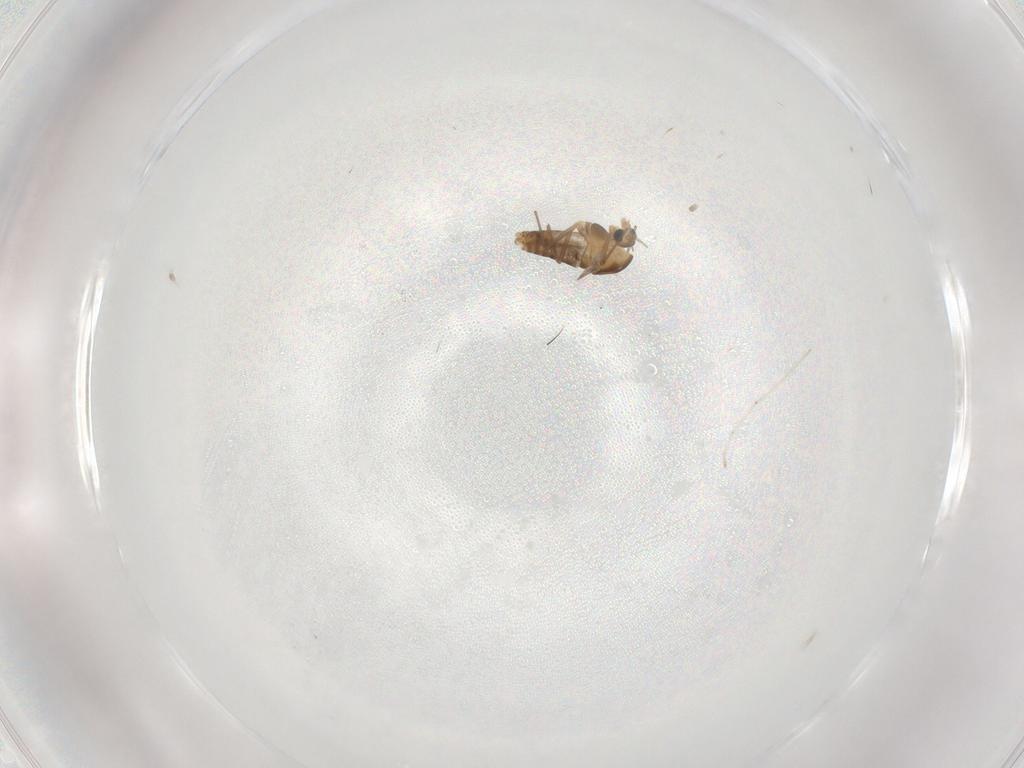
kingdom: Animalia
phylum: Arthropoda
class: Insecta
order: Diptera
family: Chironomidae
